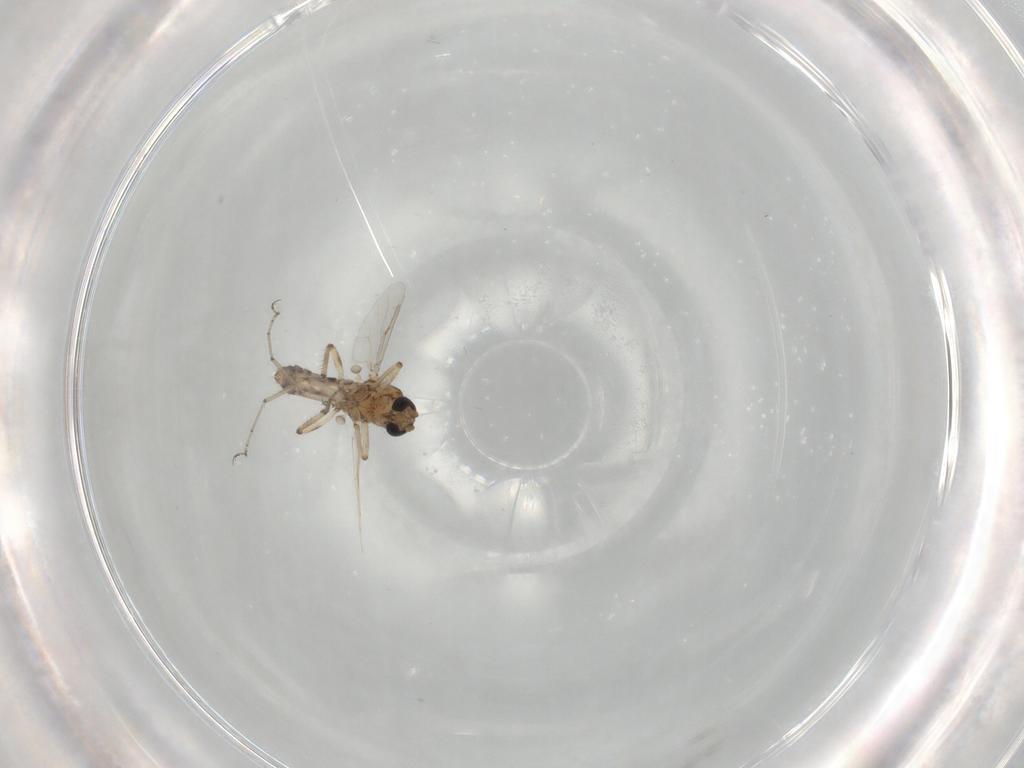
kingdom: Animalia
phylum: Arthropoda
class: Insecta
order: Diptera
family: Ceratopogonidae
